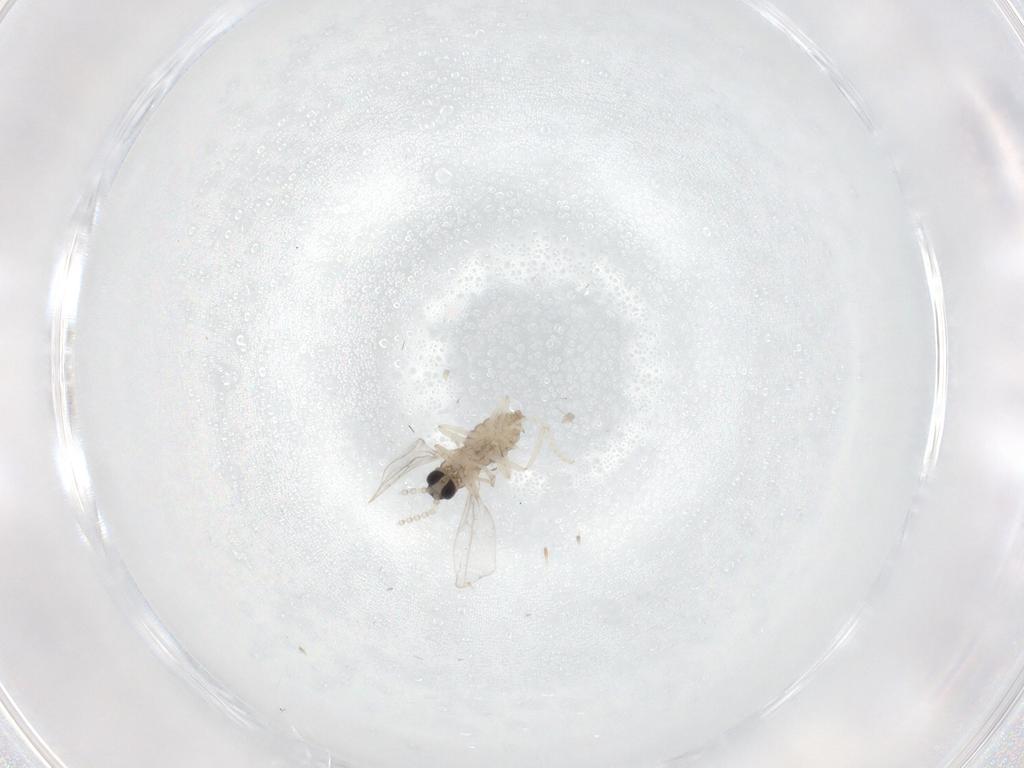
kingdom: Animalia
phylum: Arthropoda
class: Insecta
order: Diptera
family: Cecidomyiidae
